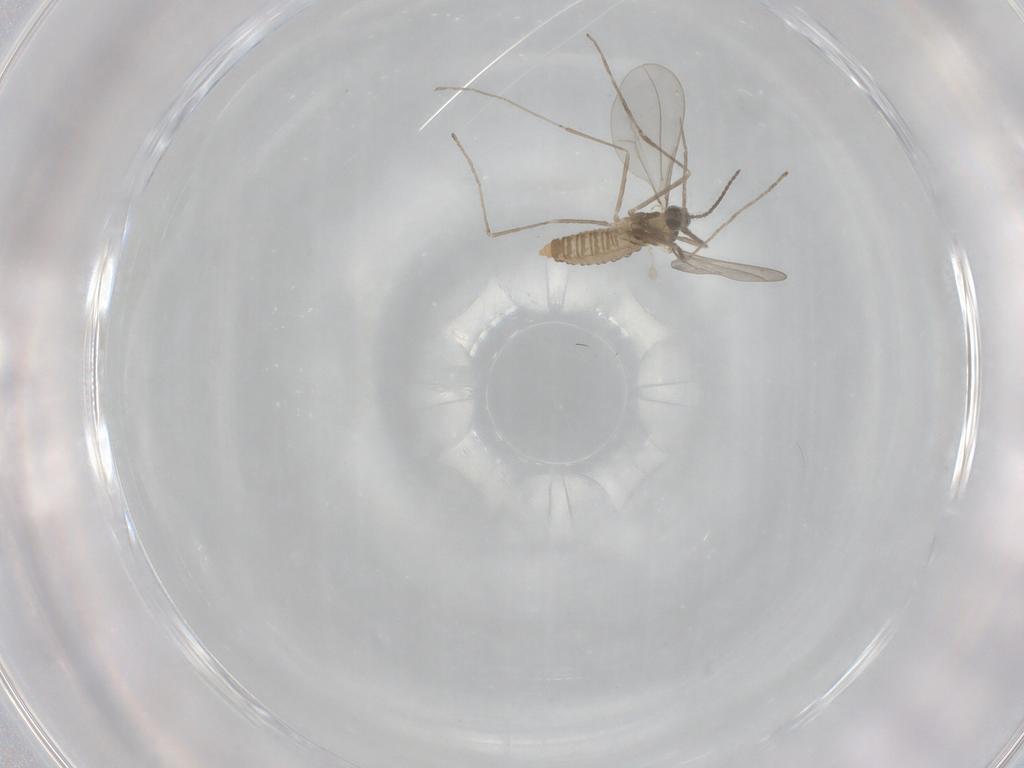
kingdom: Animalia
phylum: Arthropoda
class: Insecta
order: Diptera
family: Cecidomyiidae
